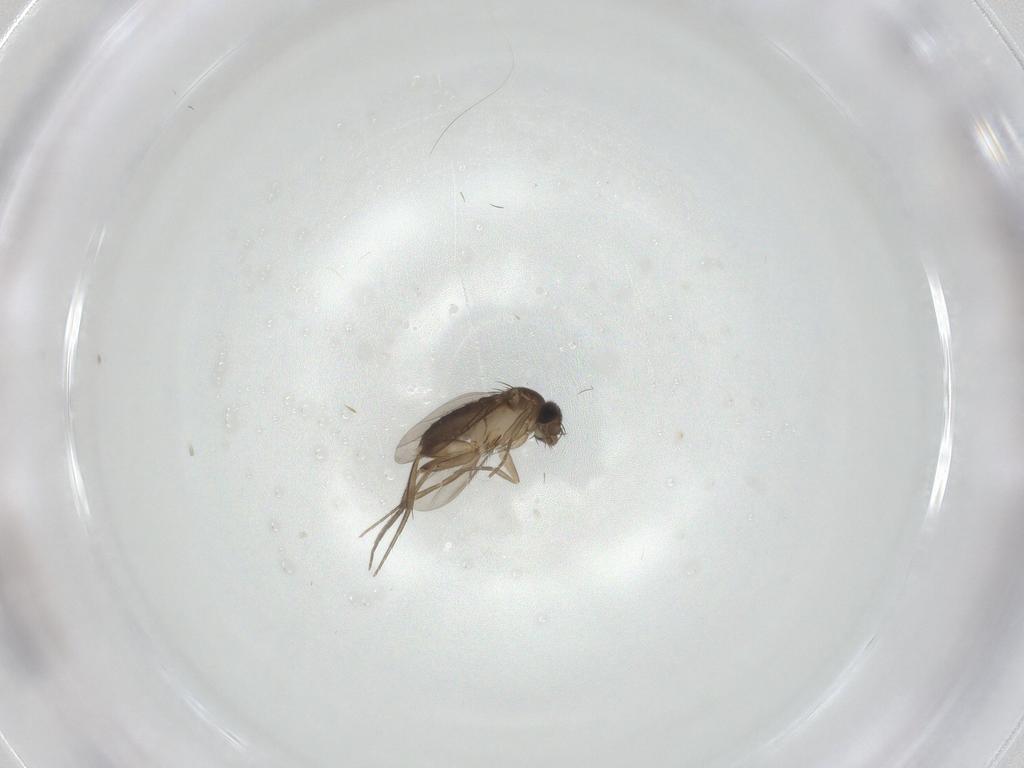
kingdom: Animalia
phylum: Arthropoda
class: Insecta
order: Diptera
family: Phoridae
